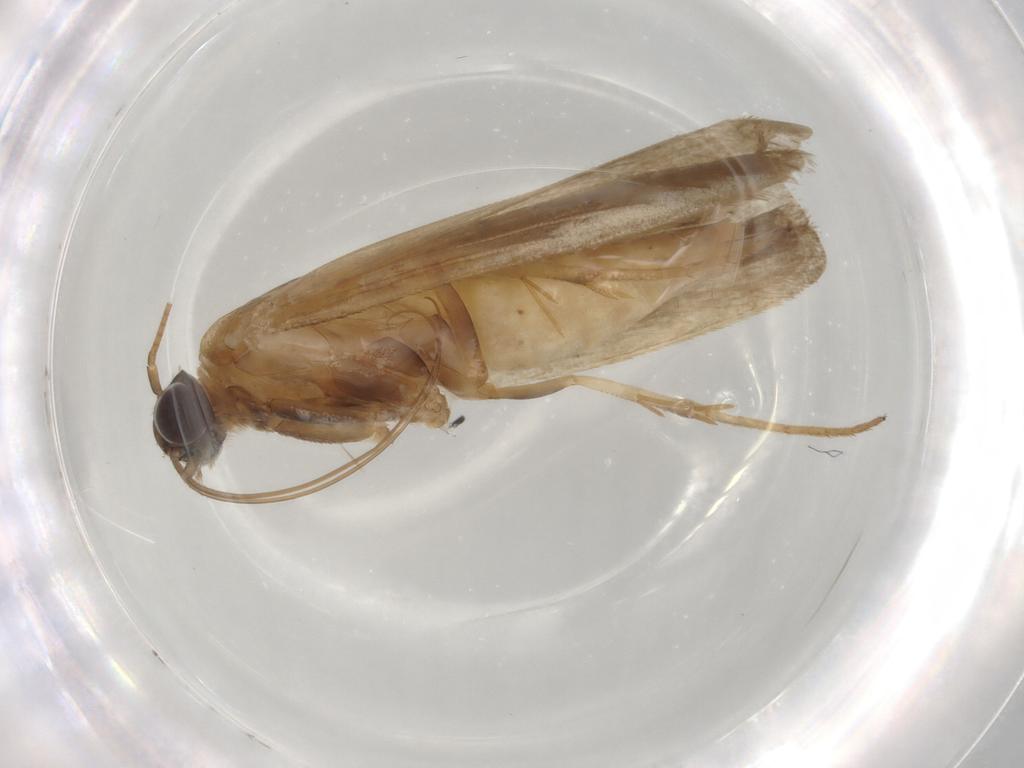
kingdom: Animalia
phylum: Arthropoda
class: Insecta
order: Lepidoptera
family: Noctuidae
